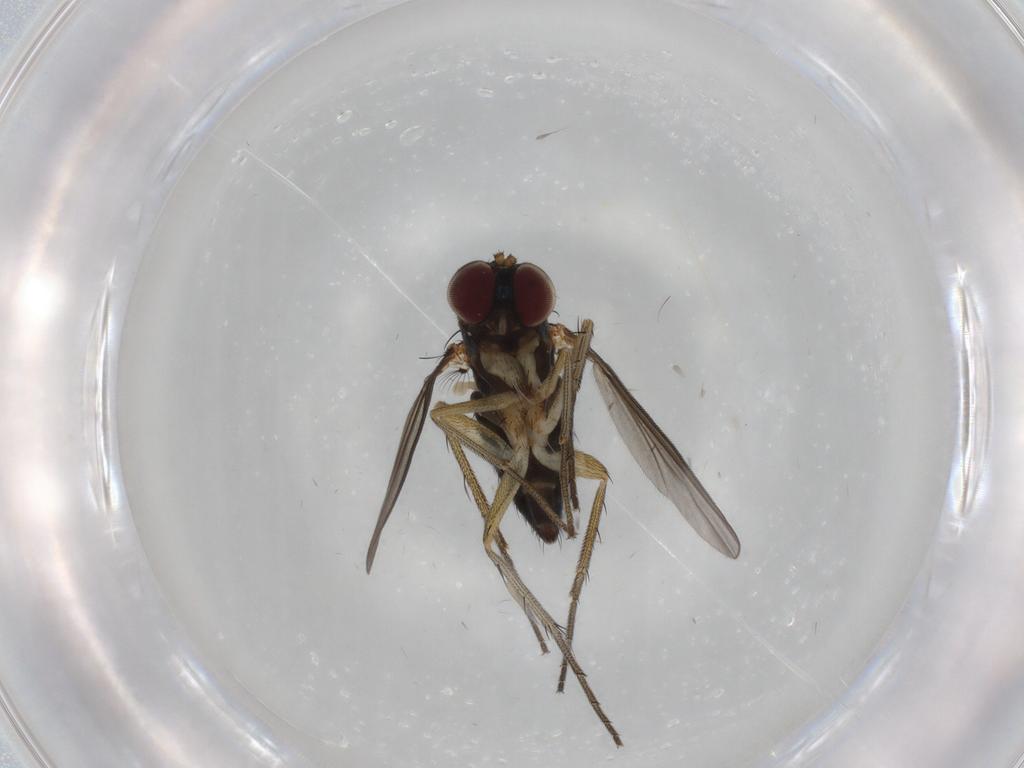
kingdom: Animalia
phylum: Arthropoda
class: Insecta
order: Diptera
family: Dolichopodidae
